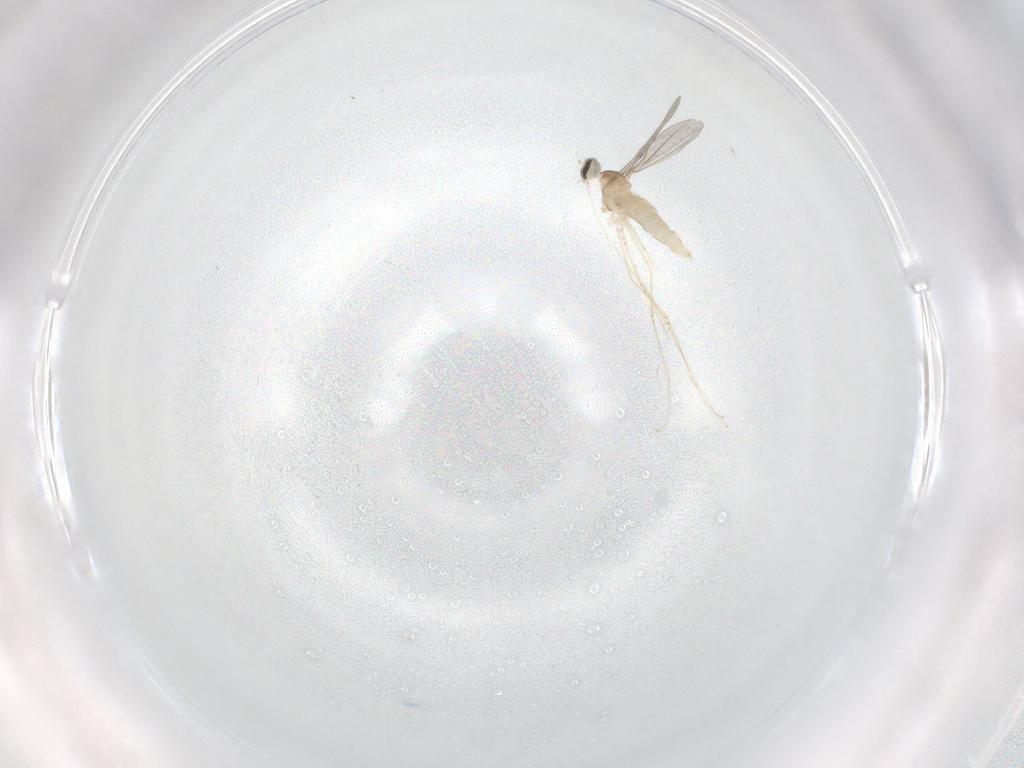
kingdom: Animalia
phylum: Arthropoda
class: Insecta
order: Diptera
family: Cecidomyiidae
